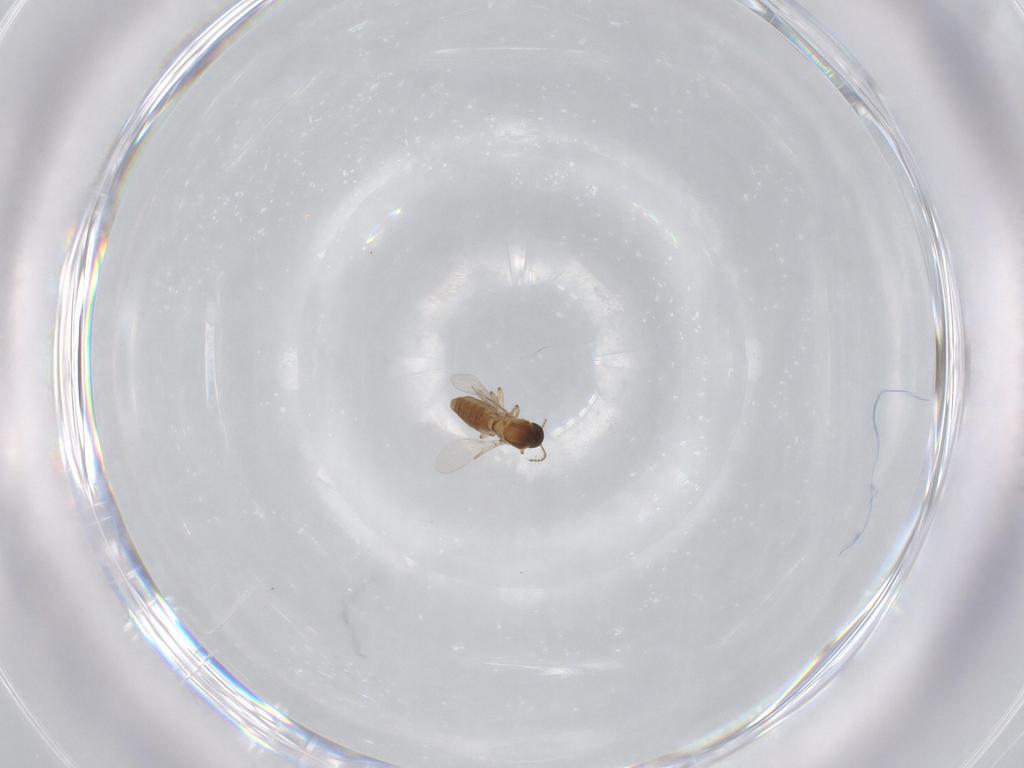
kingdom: Animalia
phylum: Arthropoda
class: Insecta
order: Diptera
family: Ceratopogonidae
